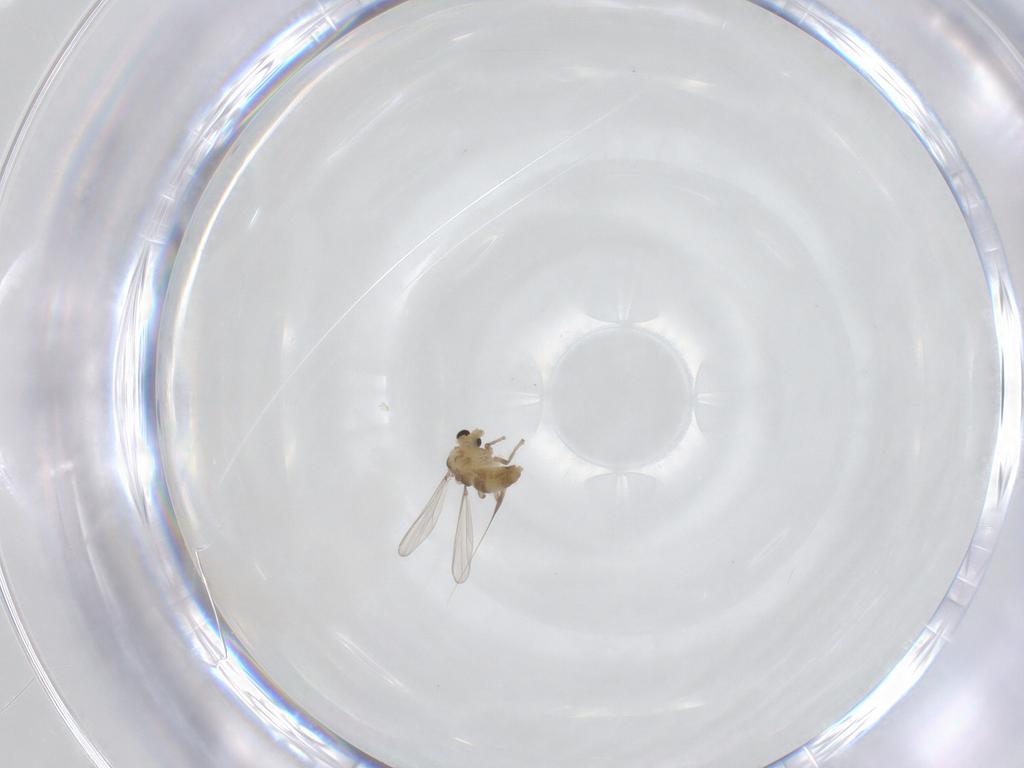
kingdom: Animalia
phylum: Arthropoda
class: Insecta
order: Diptera
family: Chironomidae
